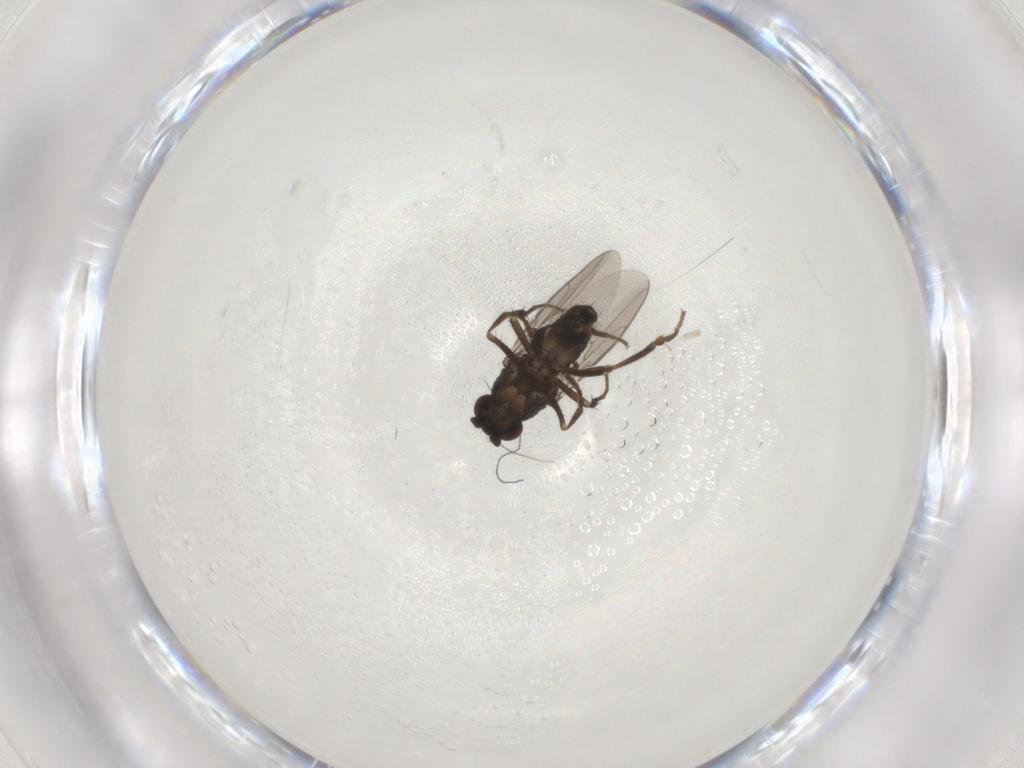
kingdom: Animalia
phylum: Arthropoda
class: Insecta
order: Diptera
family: Sphaeroceridae
